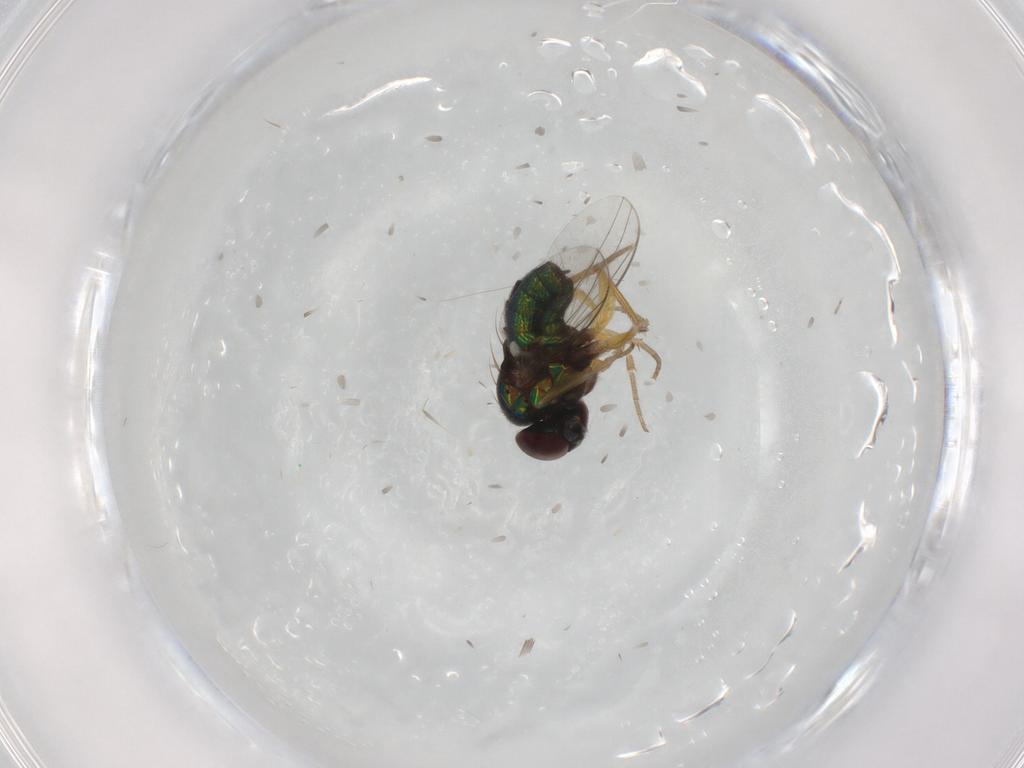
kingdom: Animalia
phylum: Arthropoda
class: Insecta
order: Diptera
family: Dolichopodidae
